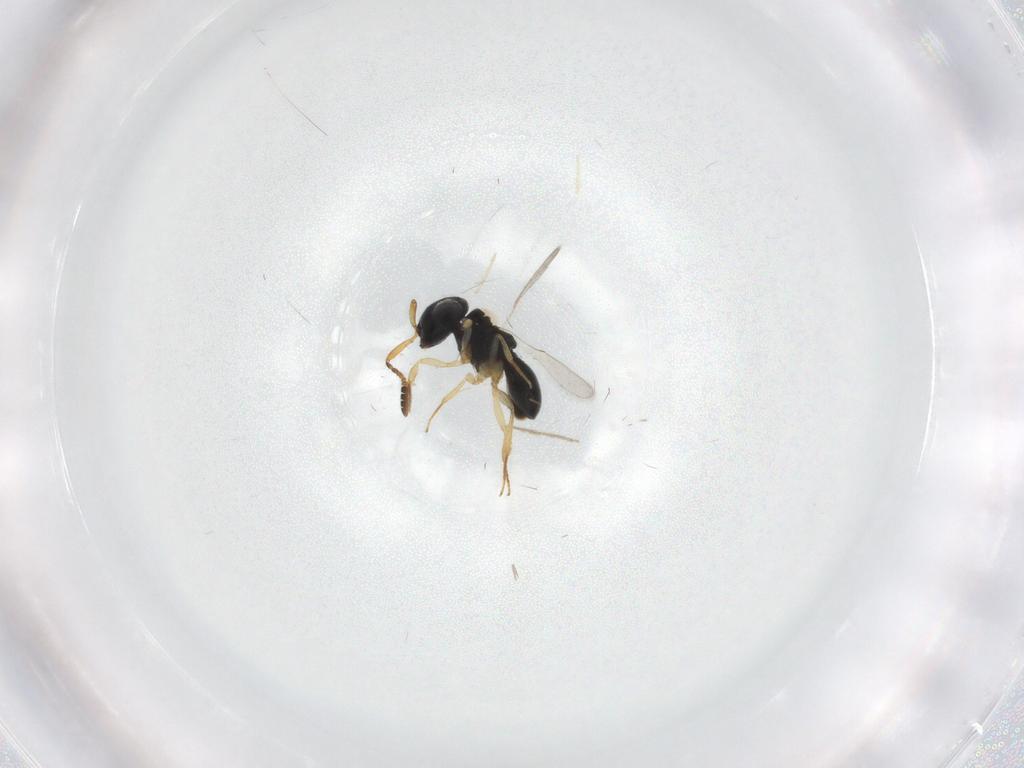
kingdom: Animalia
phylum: Arthropoda
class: Insecta
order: Hymenoptera
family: Scelionidae
